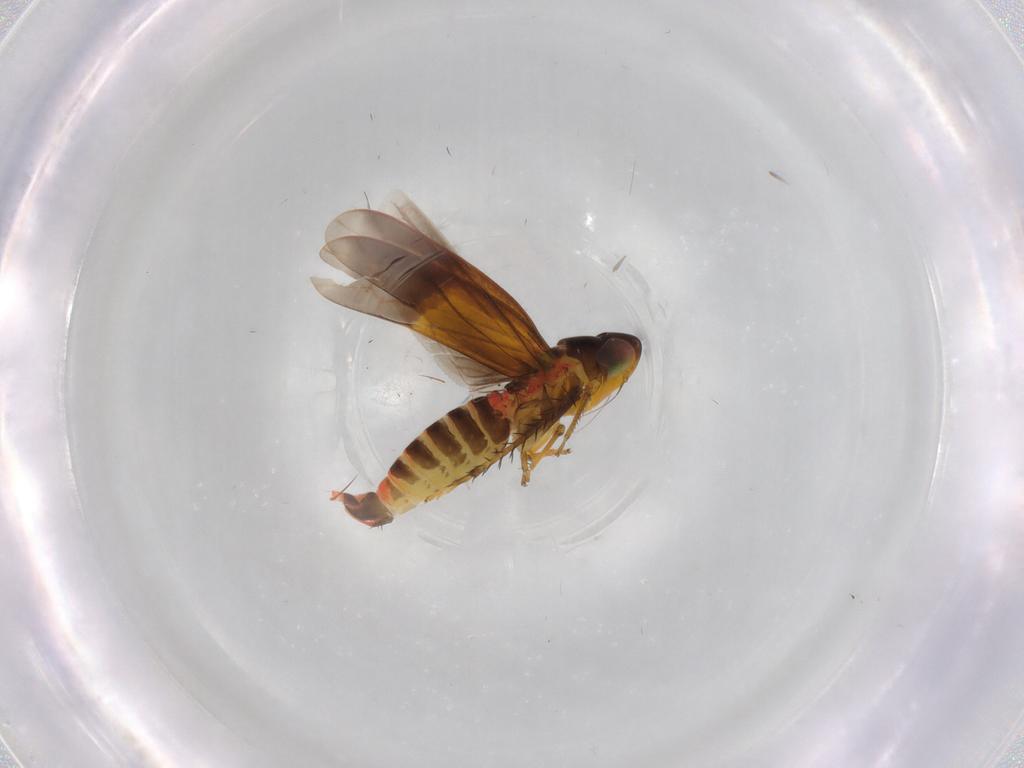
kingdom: Animalia
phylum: Arthropoda
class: Insecta
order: Hemiptera
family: Cicadellidae
